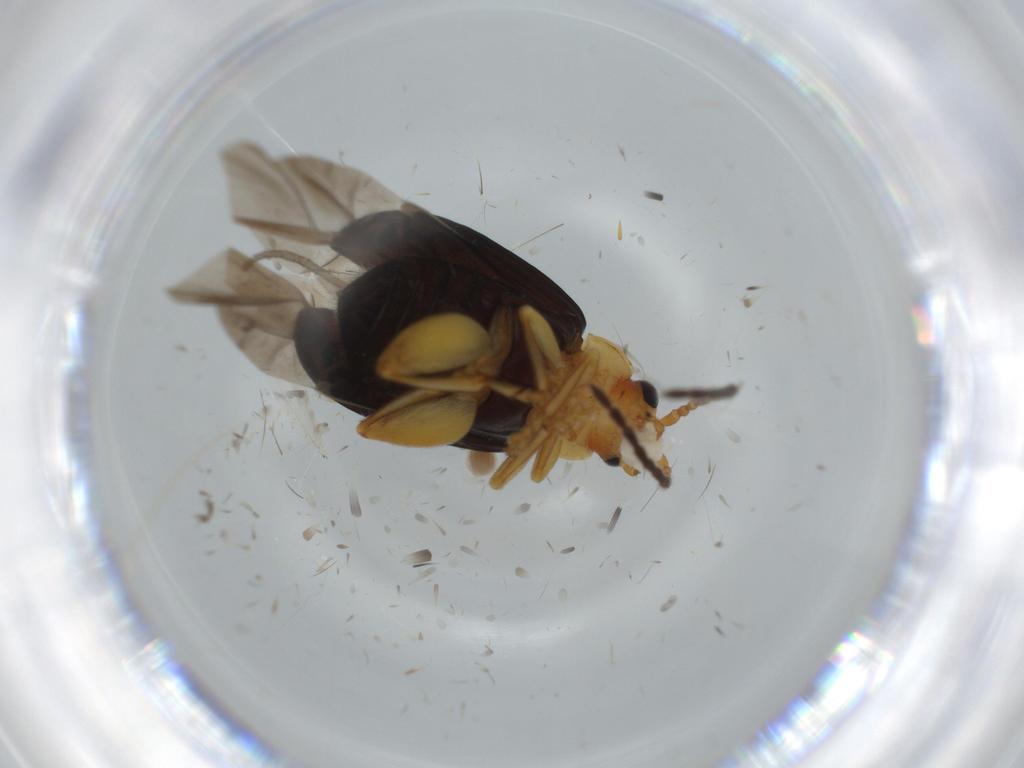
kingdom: Animalia
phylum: Arthropoda
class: Insecta
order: Coleoptera
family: Chrysomelidae
